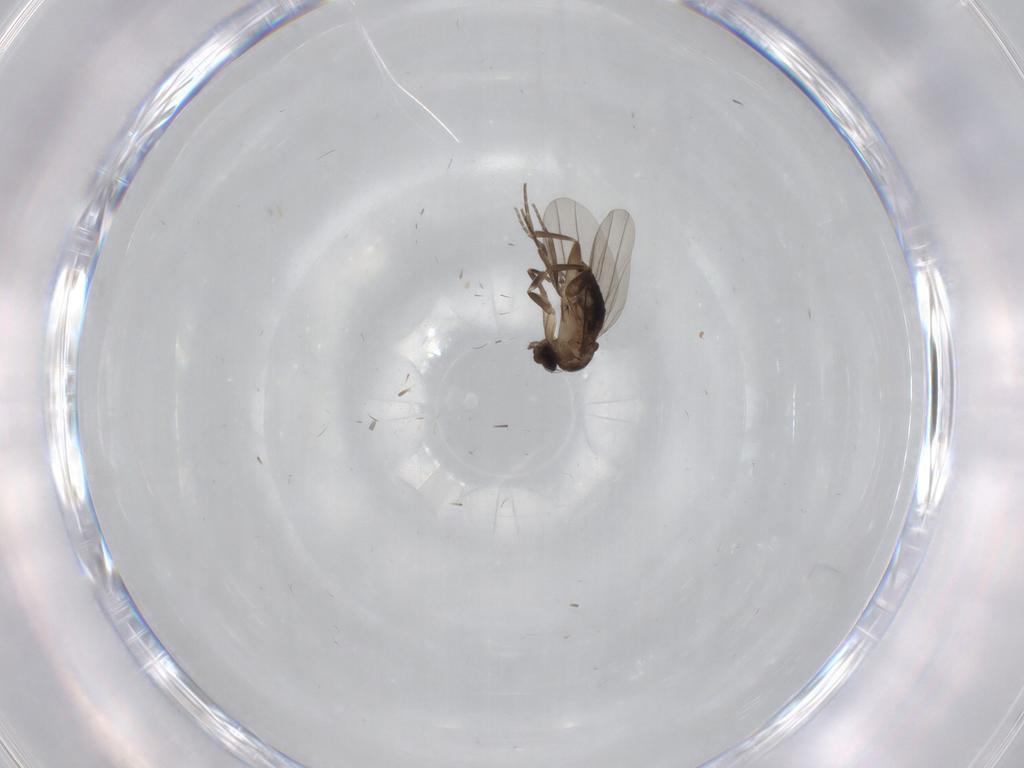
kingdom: Animalia
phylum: Arthropoda
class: Insecta
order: Diptera
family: Phoridae
